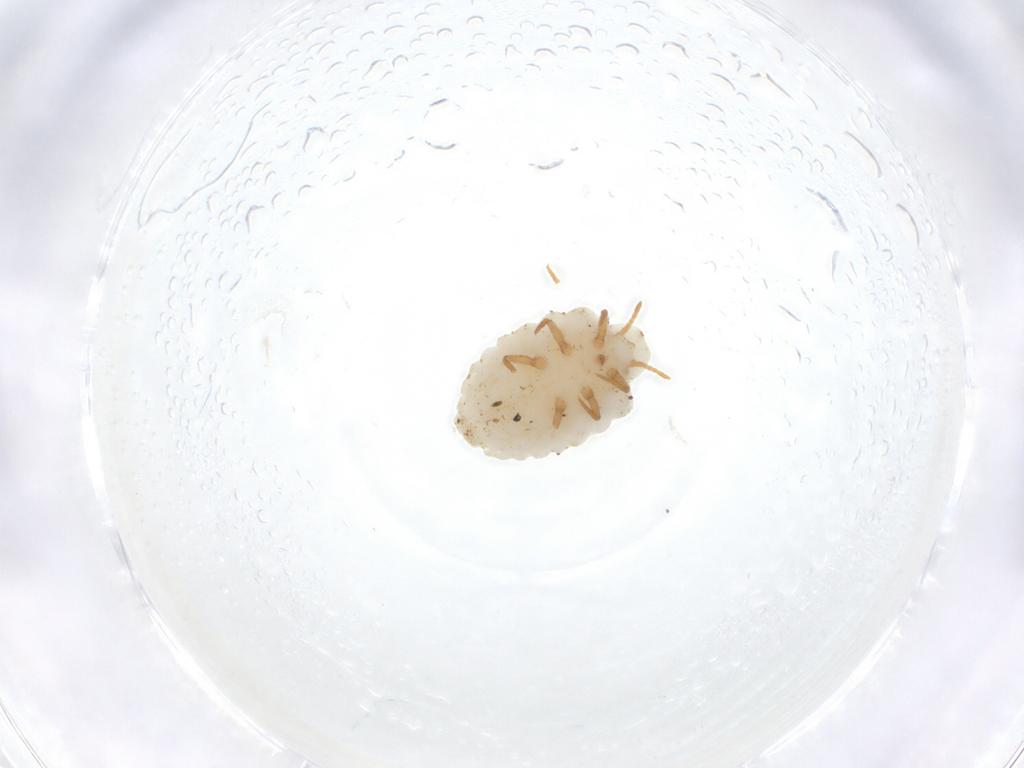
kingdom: Animalia
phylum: Arthropoda
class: Insecta
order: Hemiptera
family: Ortheziidae
